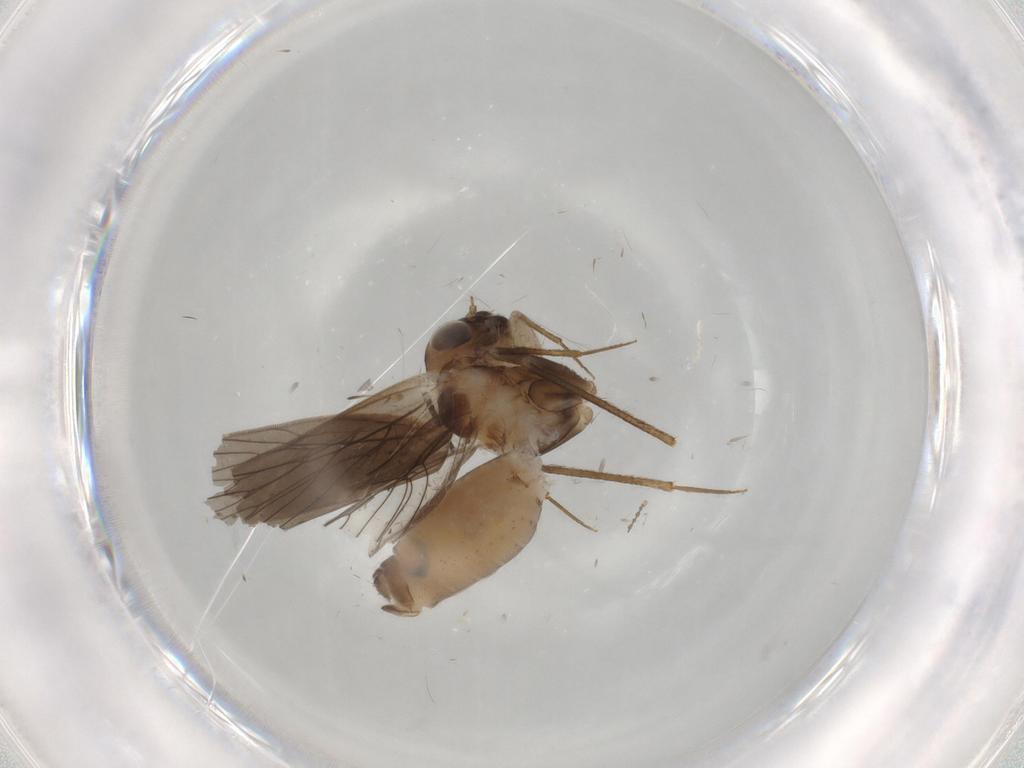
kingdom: Animalia
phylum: Arthropoda
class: Insecta
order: Psocodea
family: Lepidopsocidae
